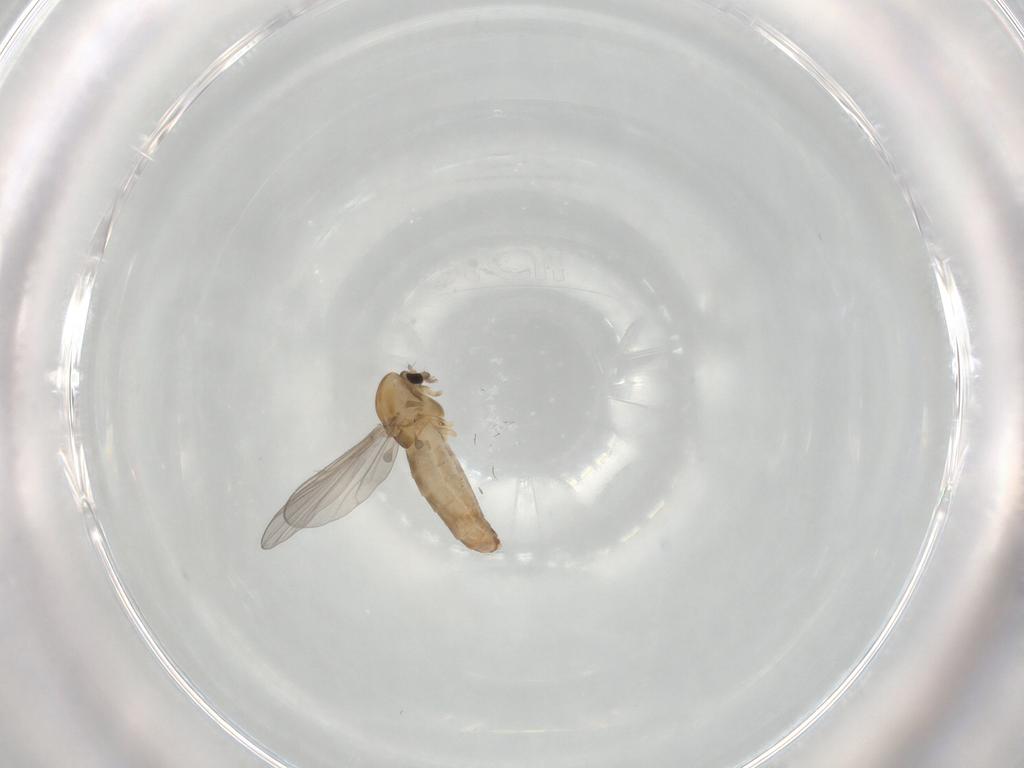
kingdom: Animalia
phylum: Arthropoda
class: Insecta
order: Diptera
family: Chironomidae
